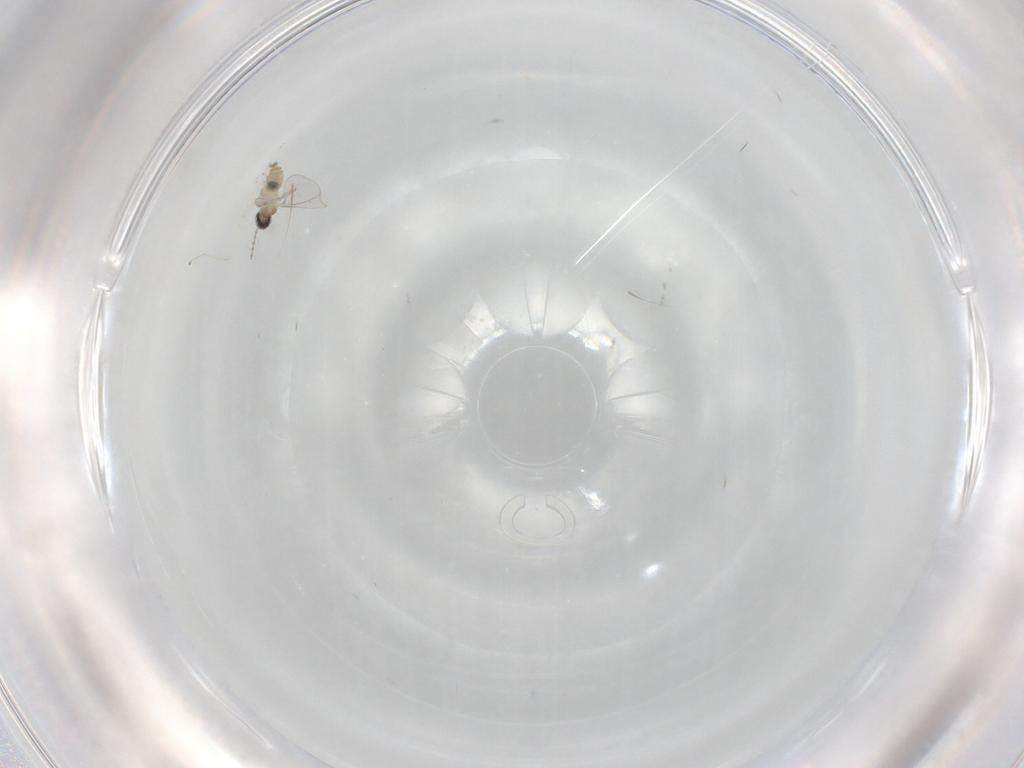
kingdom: Animalia
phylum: Arthropoda
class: Insecta
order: Diptera
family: Cecidomyiidae
